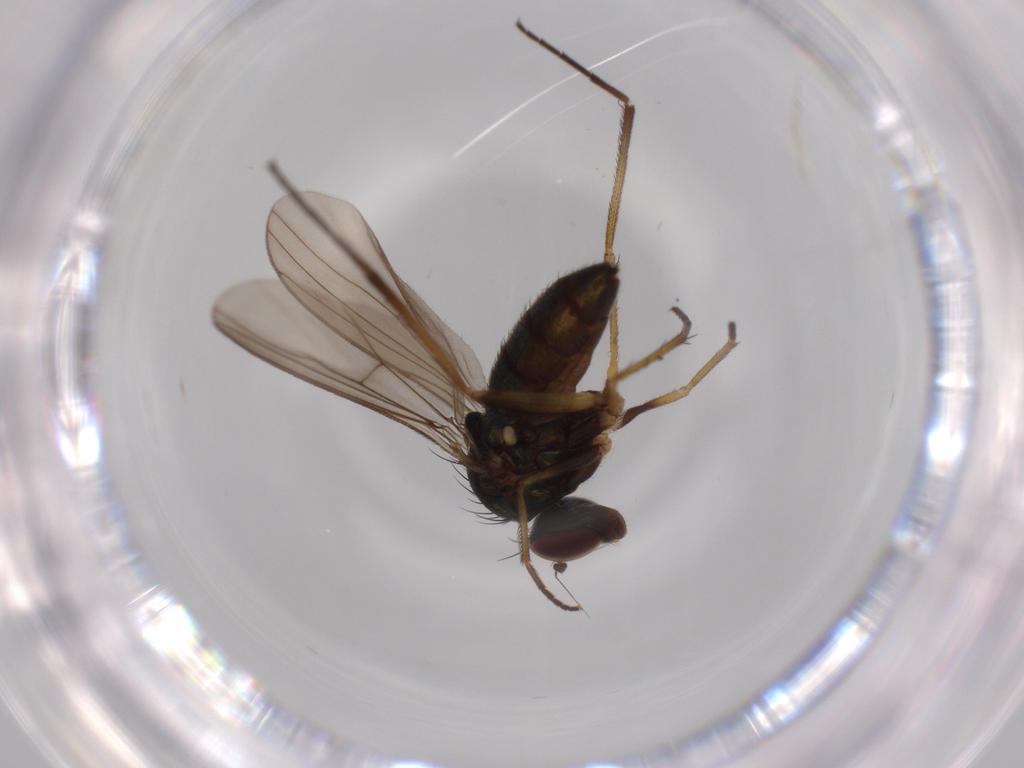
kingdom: Animalia
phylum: Arthropoda
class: Insecta
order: Diptera
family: Dolichopodidae
